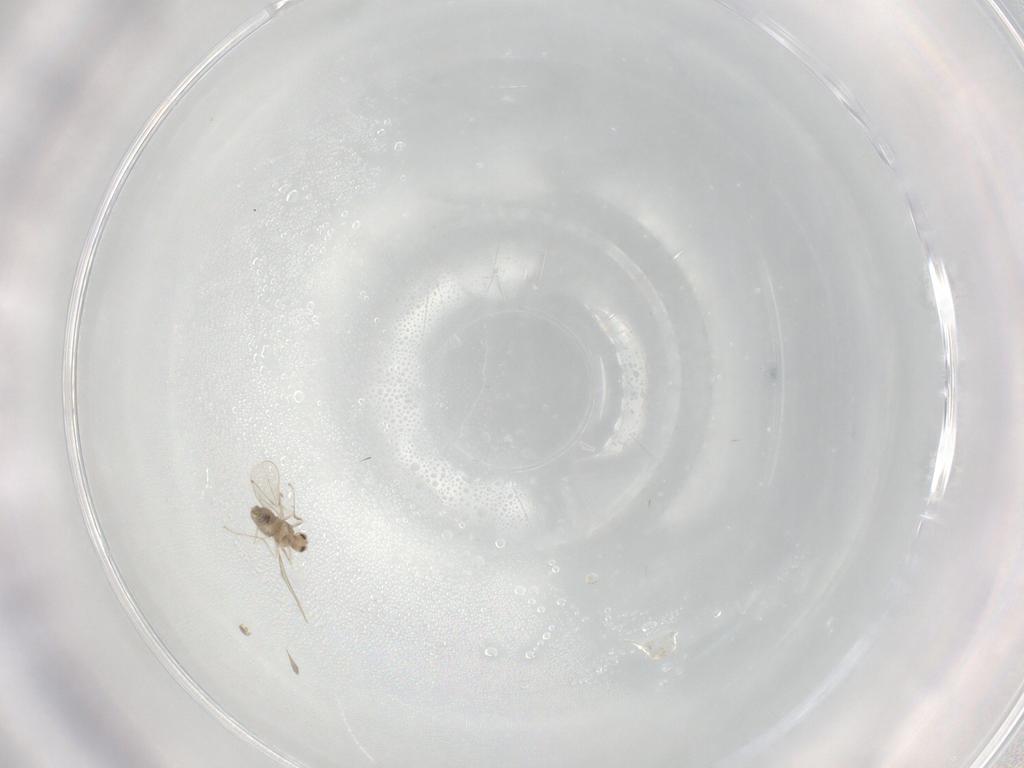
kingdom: Animalia
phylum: Arthropoda
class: Insecta
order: Diptera
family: Cecidomyiidae
